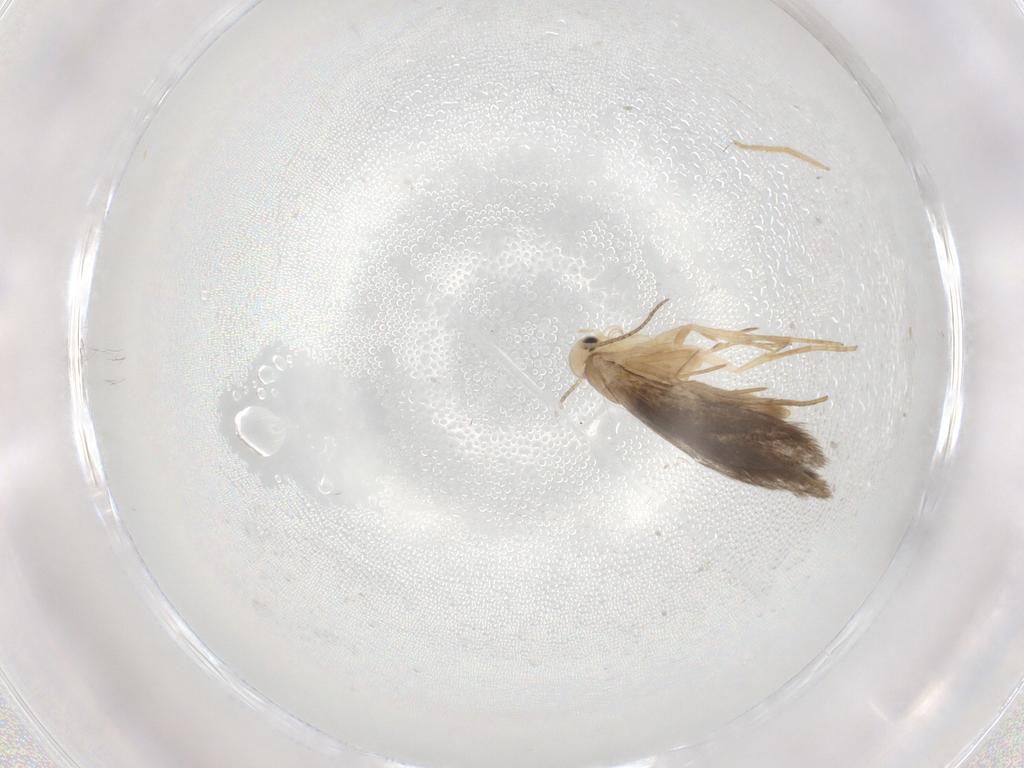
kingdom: Animalia
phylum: Arthropoda
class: Insecta
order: Lepidoptera
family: Schreckensteiniidae
